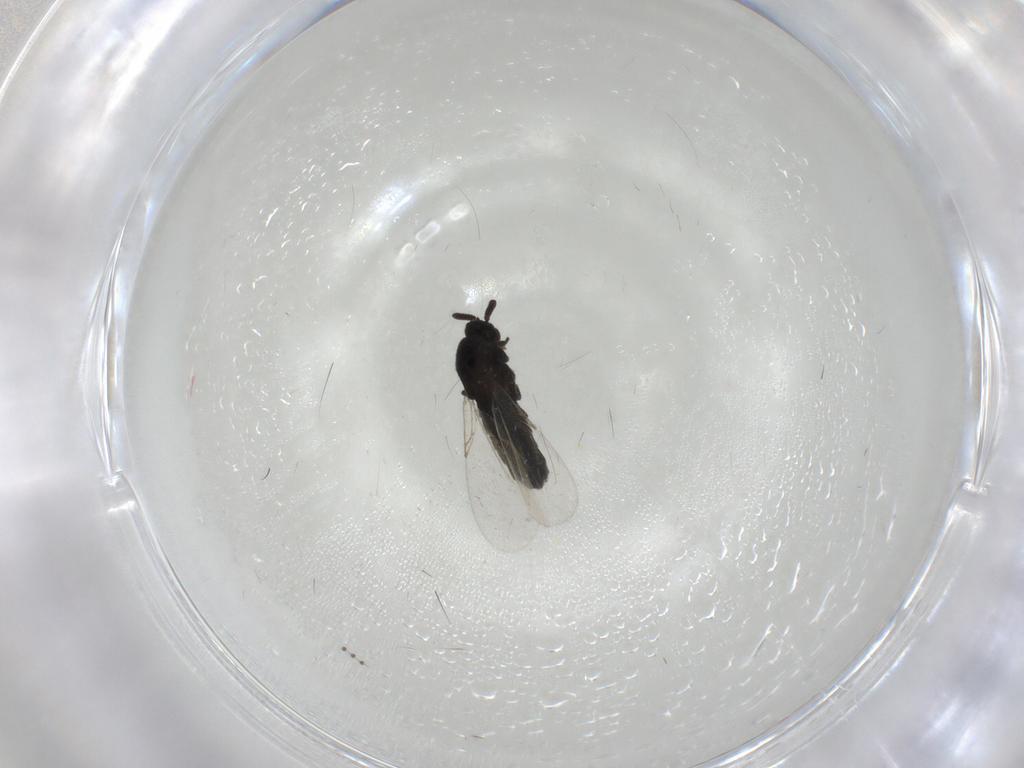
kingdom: Animalia
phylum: Arthropoda
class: Insecta
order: Diptera
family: Scatopsidae
